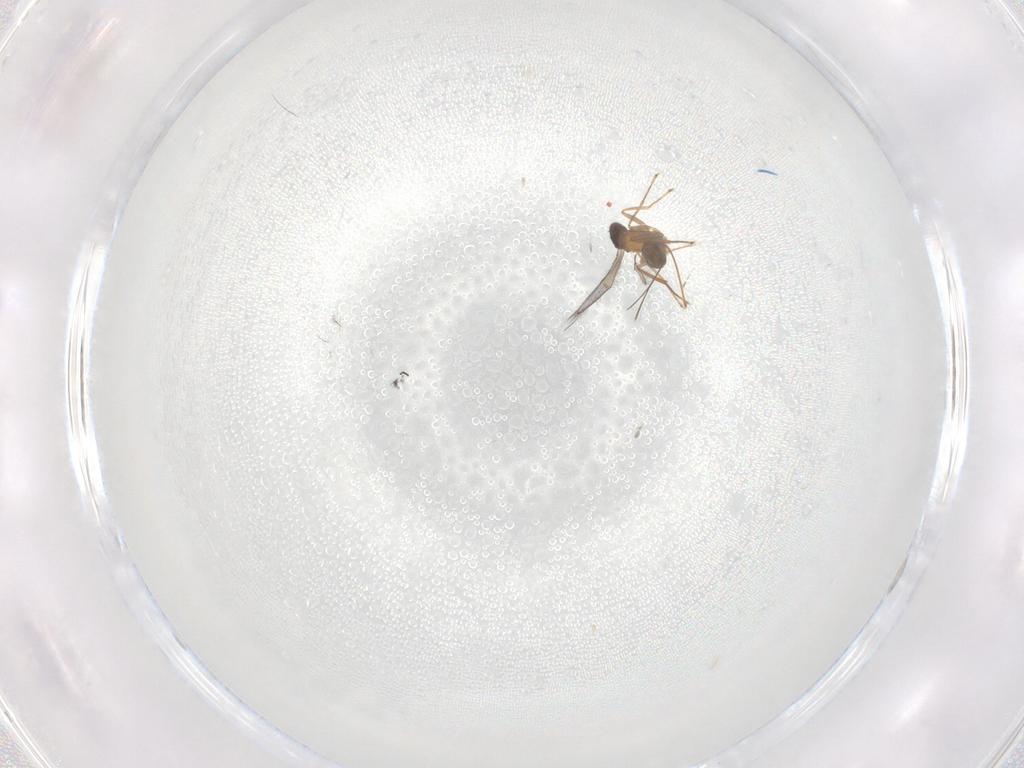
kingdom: Animalia
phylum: Arthropoda
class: Insecta
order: Hymenoptera
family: Mymaridae
